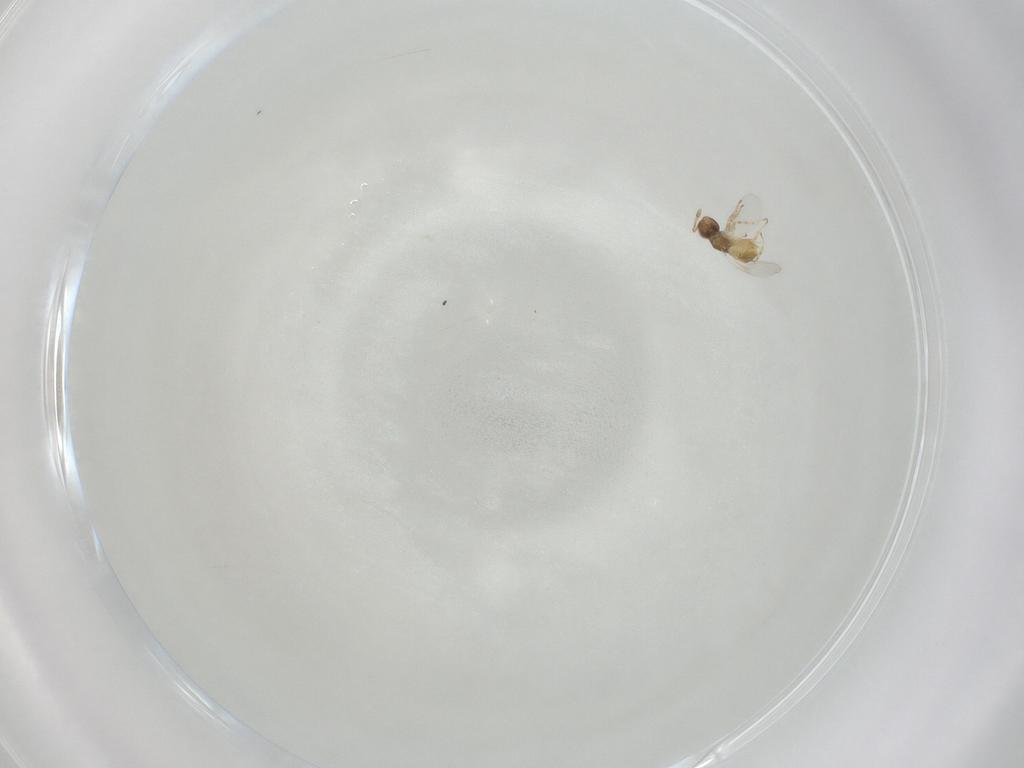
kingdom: Animalia
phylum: Arthropoda
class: Insecta
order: Hymenoptera
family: Encyrtidae
